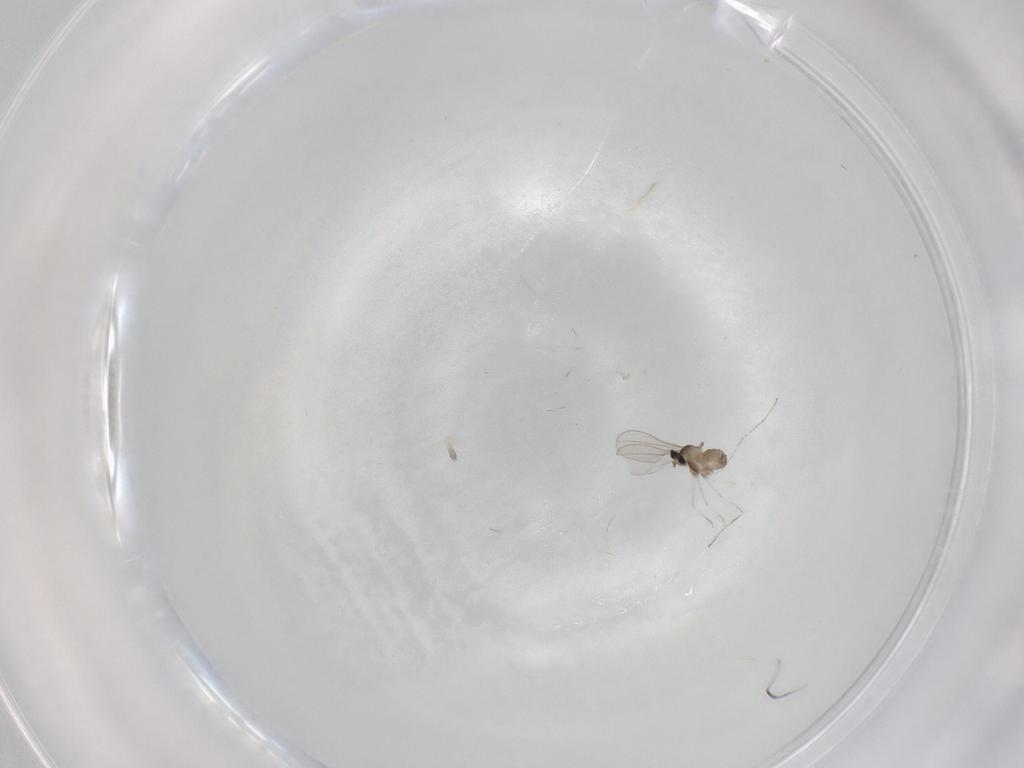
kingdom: Animalia
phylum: Arthropoda
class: Insecta
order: Diptera
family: Cecidomyiidae
